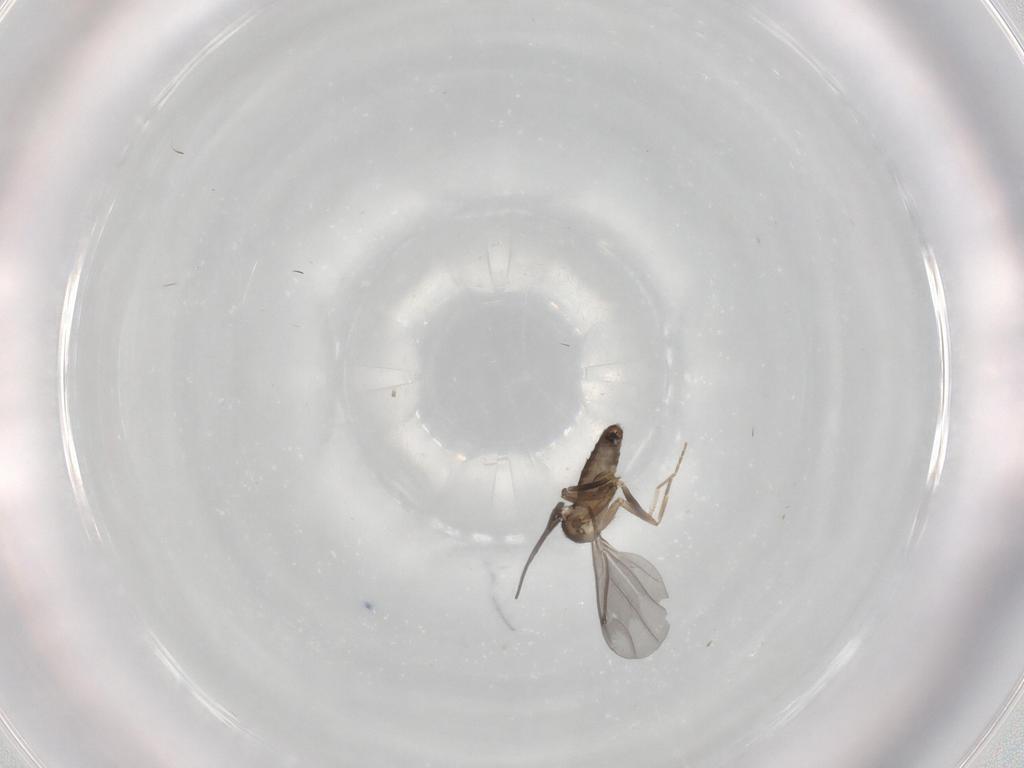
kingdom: Animalia
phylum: Arthropoda
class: Insecta
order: Diptera
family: Phoridae
